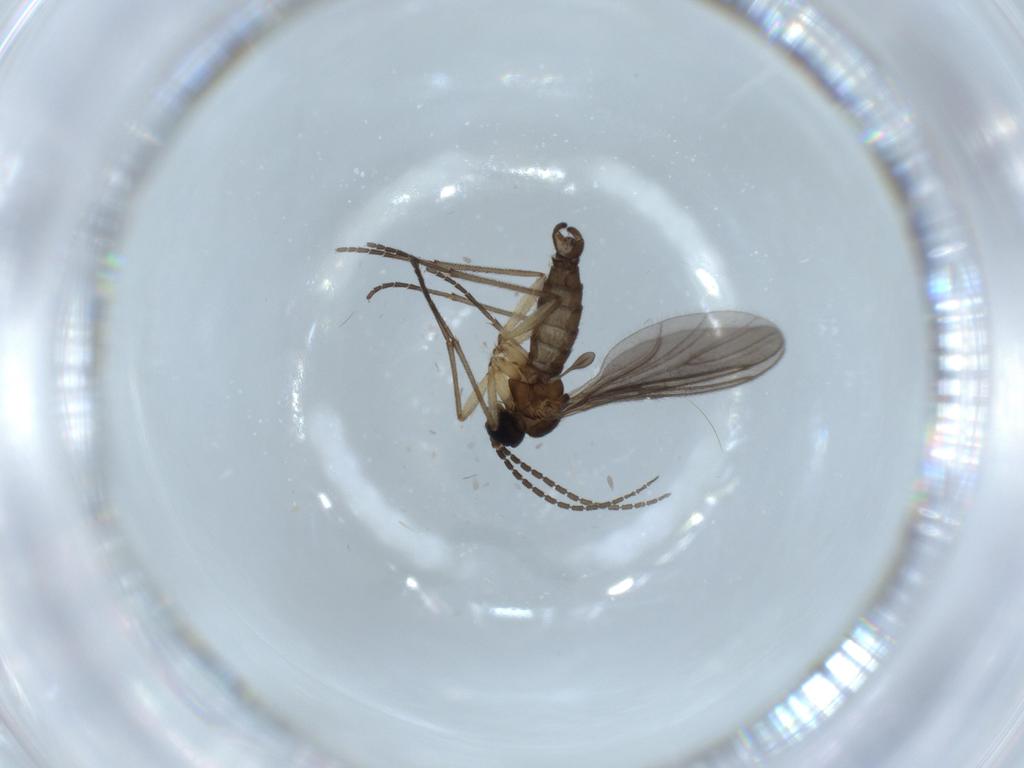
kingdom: Animalia
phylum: Arthropoda
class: Insecta
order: Diptera
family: Sciaridae
